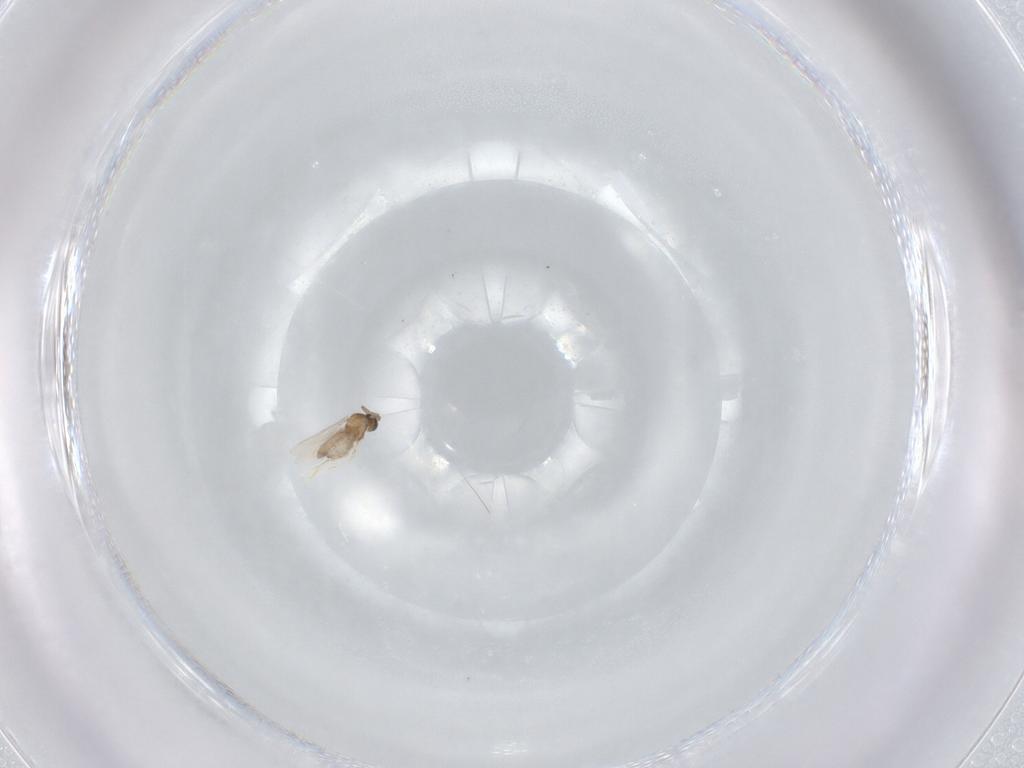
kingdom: Animalia
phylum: Arthropoda
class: Insecta
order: Diptera
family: Cecidomyiidae
